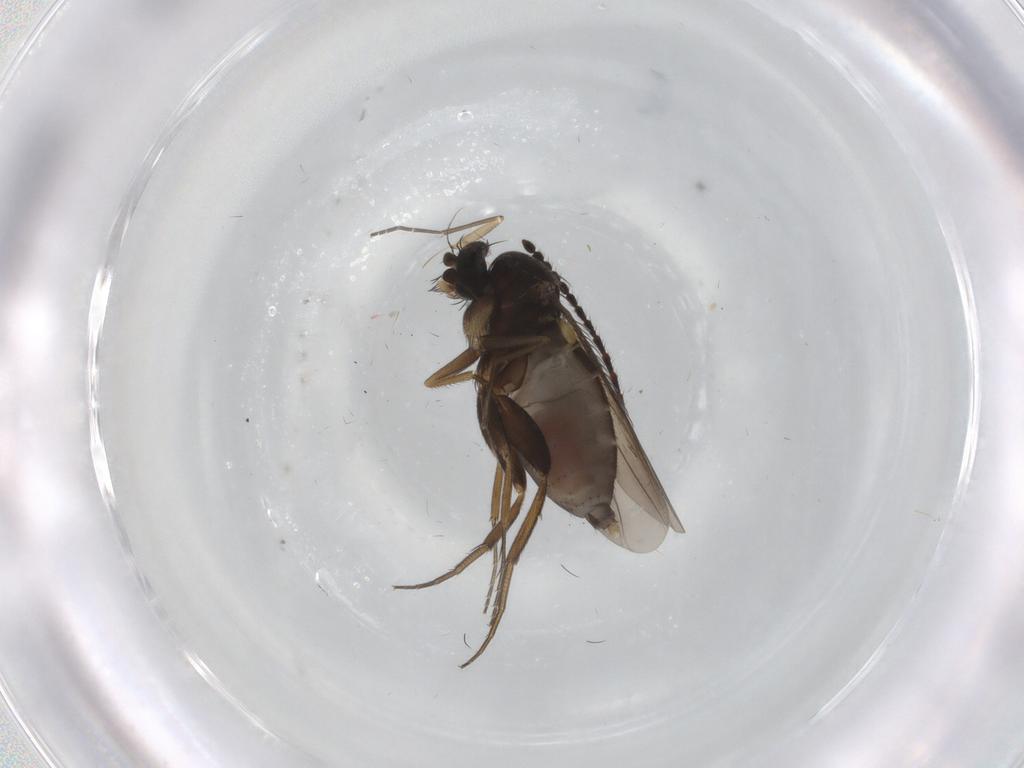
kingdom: Animalia
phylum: Arthropoda
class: Insecta
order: Diptera
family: Phoridae
